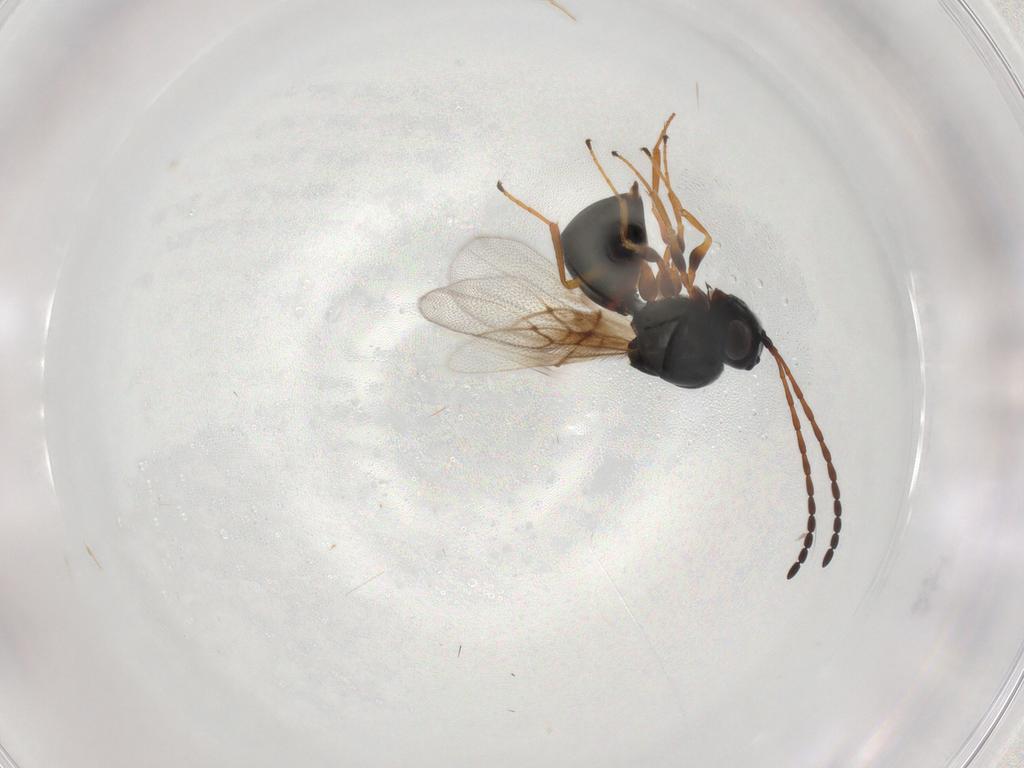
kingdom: Animalia
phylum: Arthropoda
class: Insecta
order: Hymenoptera
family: Figitidae
